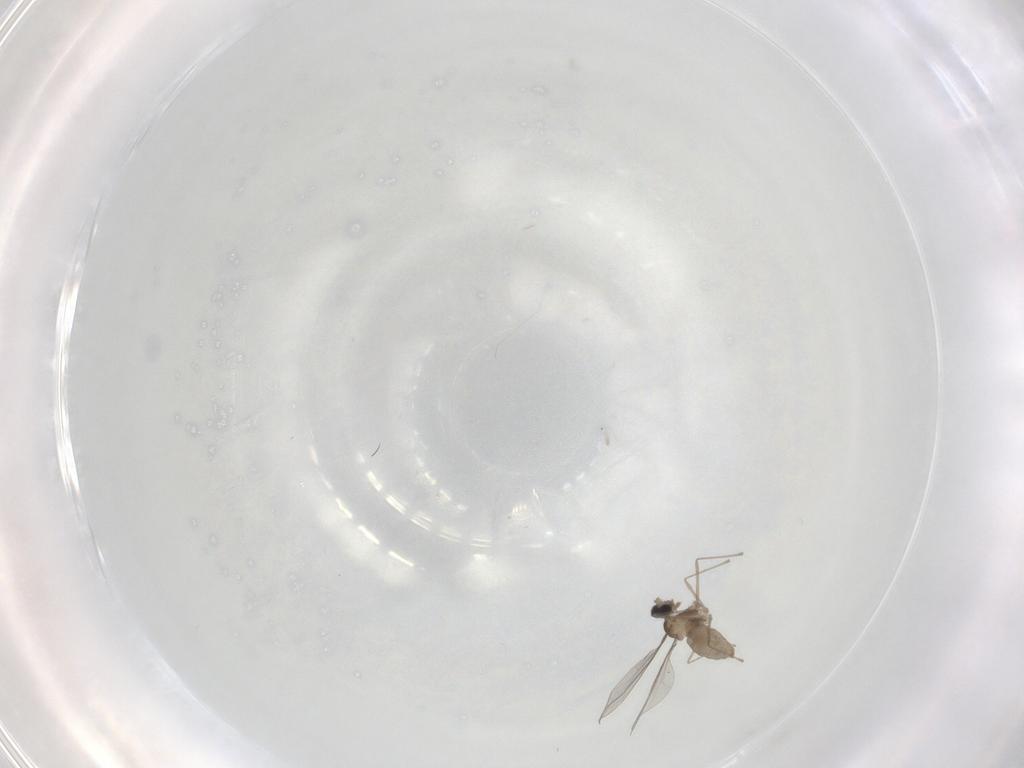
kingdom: Animalia
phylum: Arthropoda
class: Insecta
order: Diptera
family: Cecidomyiidae
